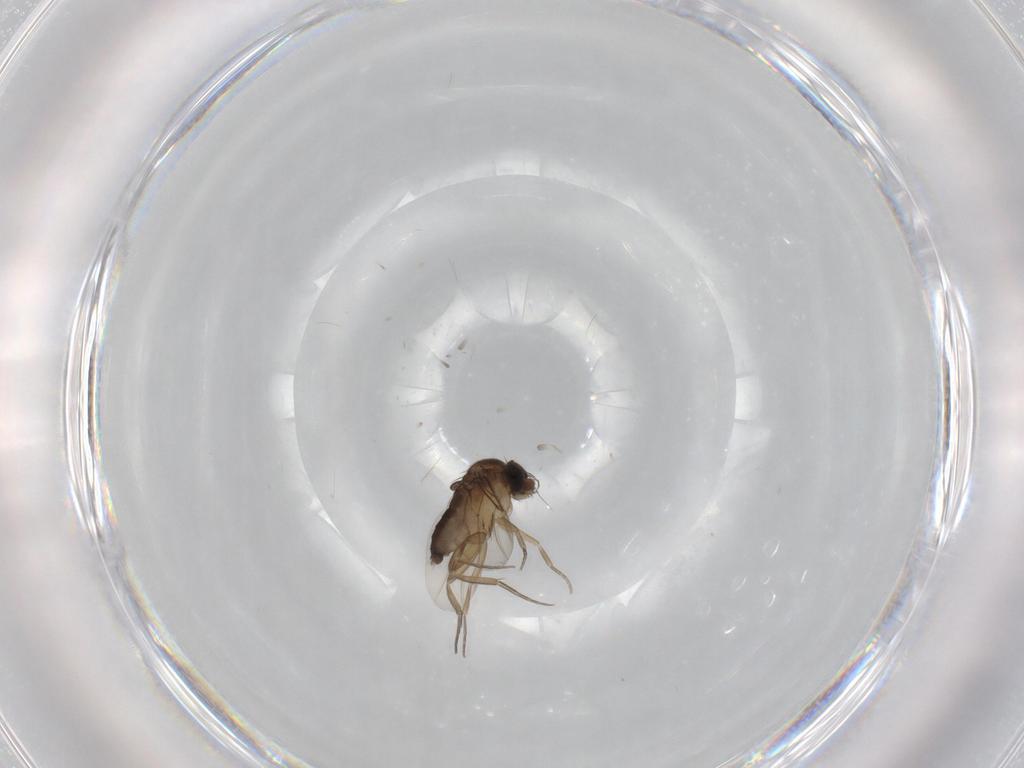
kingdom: Animalia
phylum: Arthropoda
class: Insecta
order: Diptera
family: Phoridae
